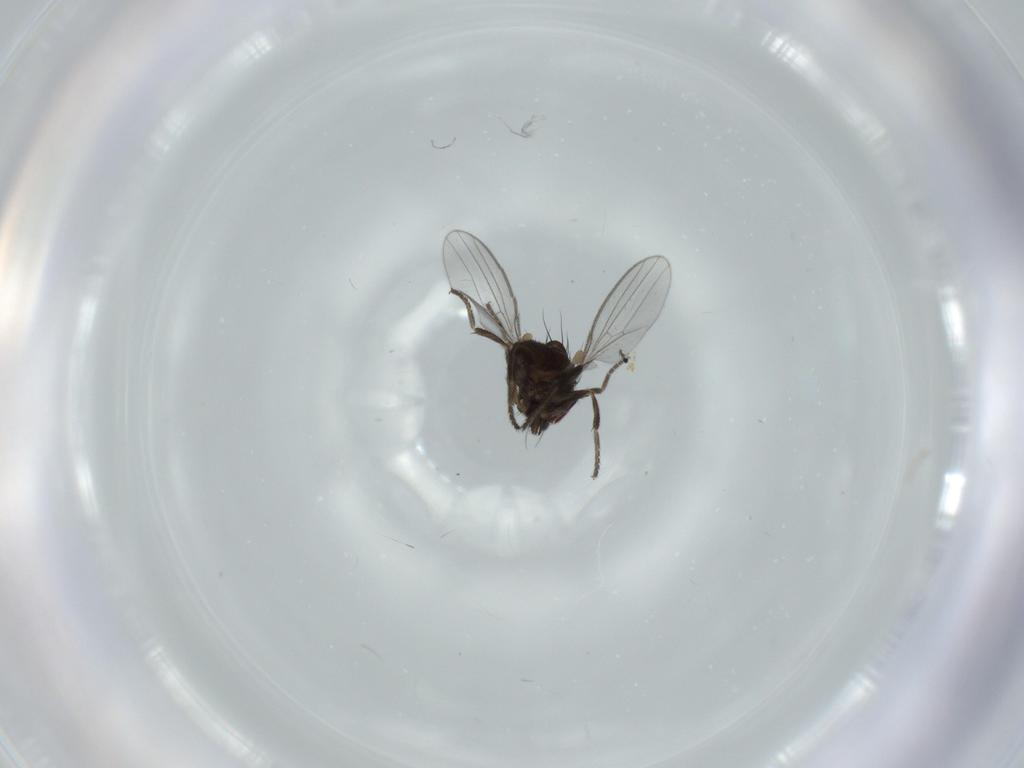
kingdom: Animalia
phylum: Arthropoda
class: Insecta
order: Diptera
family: Milichiidae
